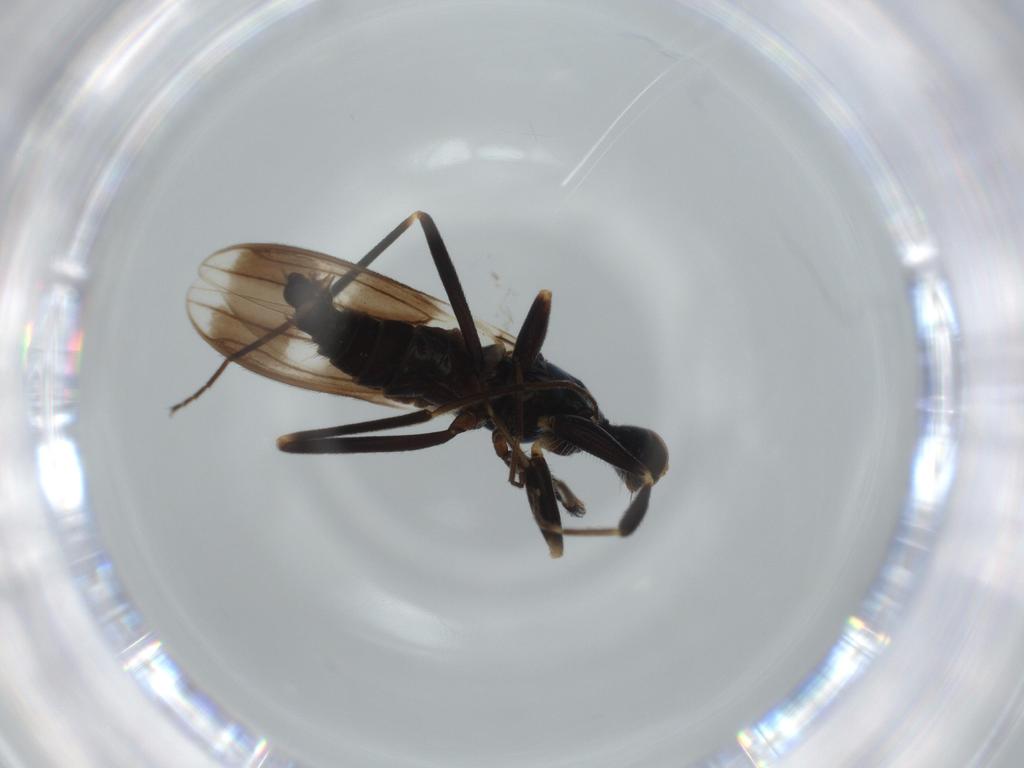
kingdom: Animalia
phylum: Arthropoda
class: Insecta
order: Diptera
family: Hybotidae
